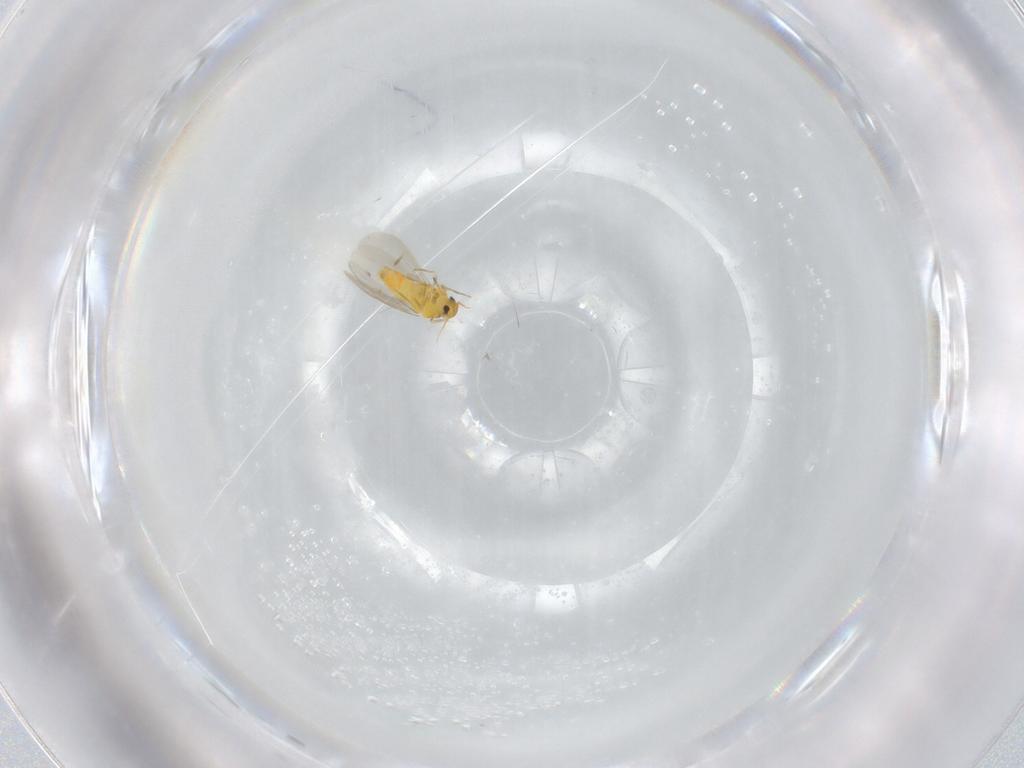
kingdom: Animalia
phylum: Arthropoda
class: Insecta
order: Hemiptera
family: Aleyrodidae
